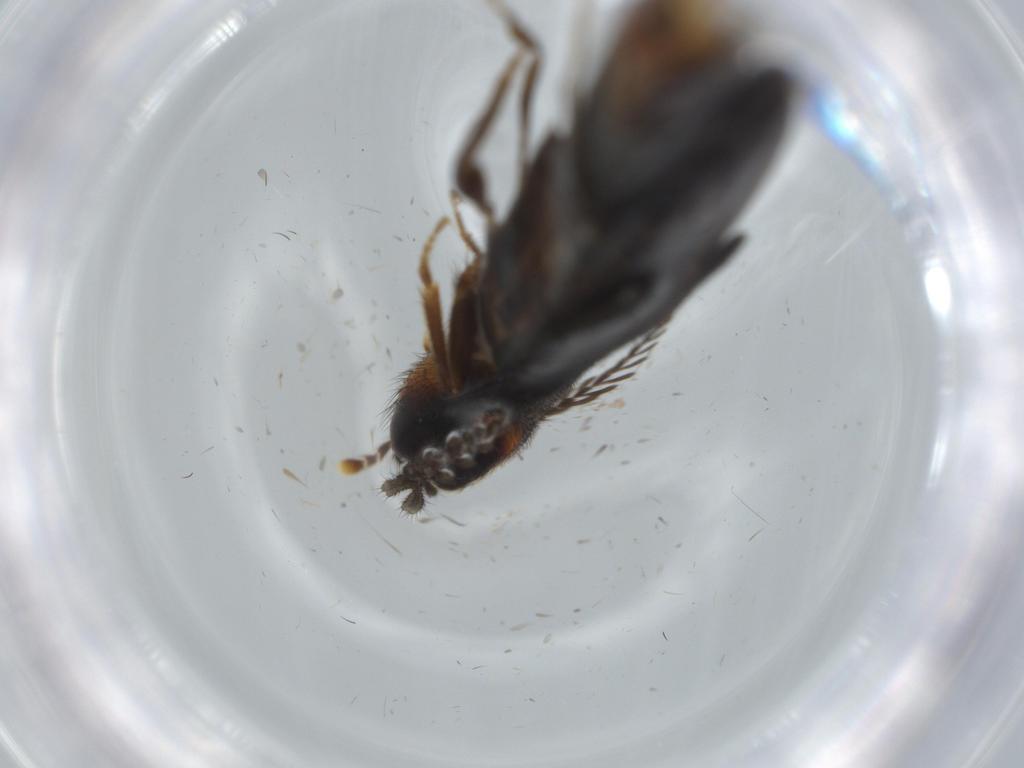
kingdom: Animalia
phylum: Arthropoda
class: Insecta
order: Coleoptera
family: Phengodidae
